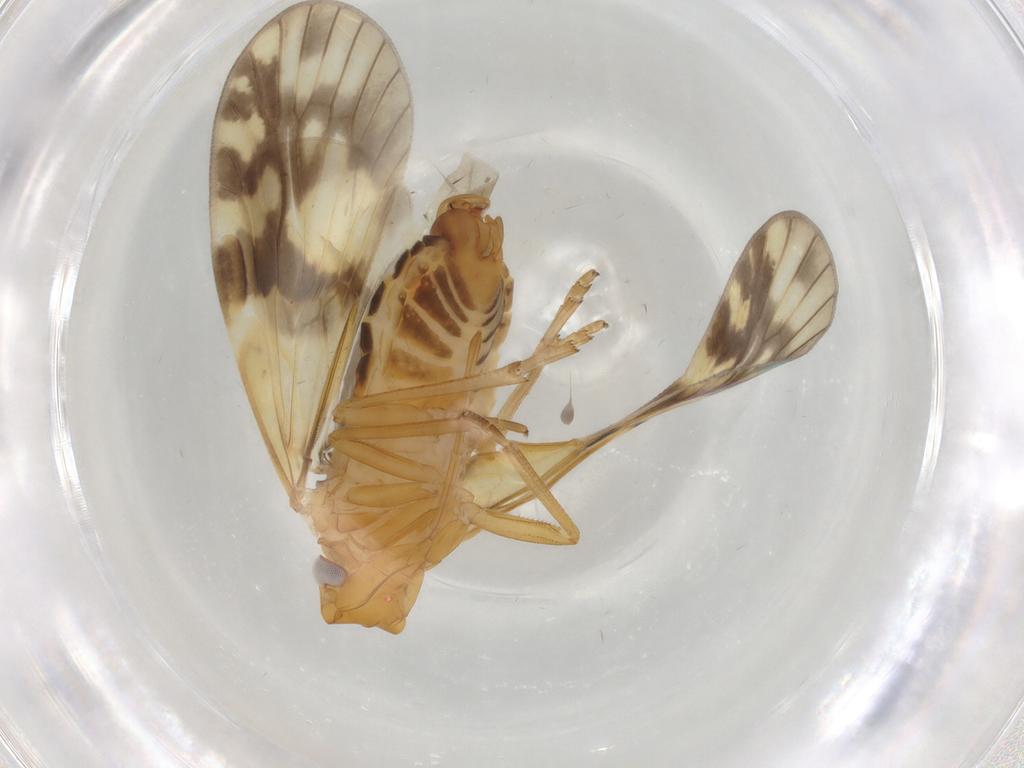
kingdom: Animalia
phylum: Arthropoda
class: Insecta
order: Hemiptera
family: Cixiidae
